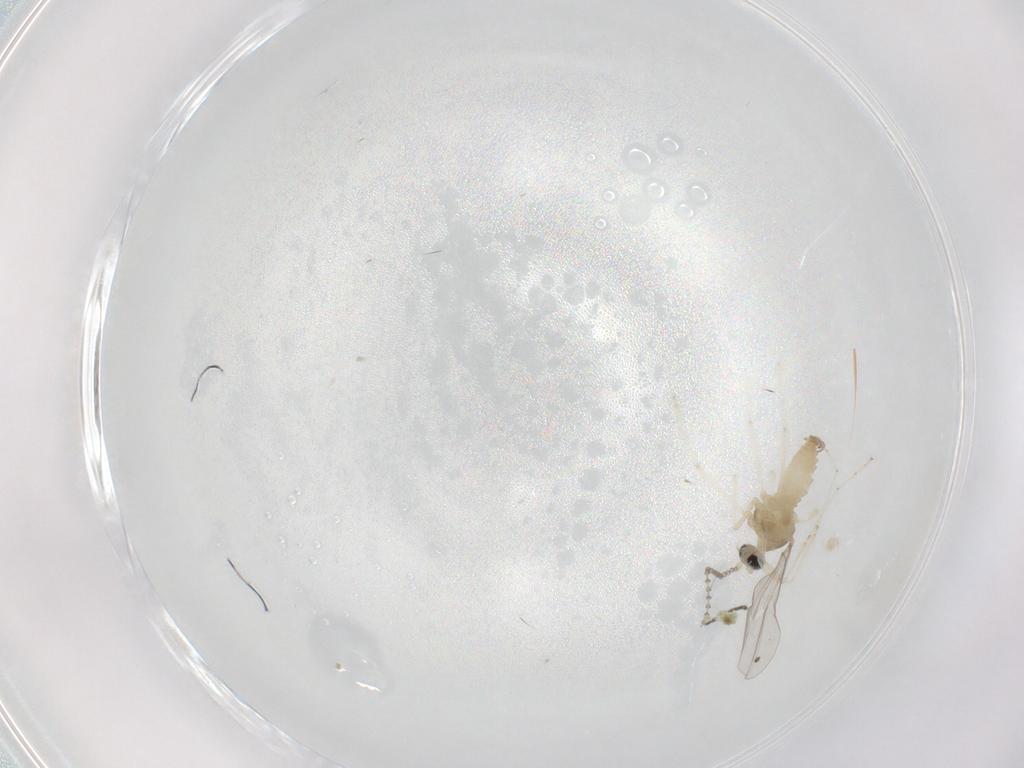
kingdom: Animalia
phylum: Arthropoda
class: Insecta
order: Diptera
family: Cecidomyiidae
